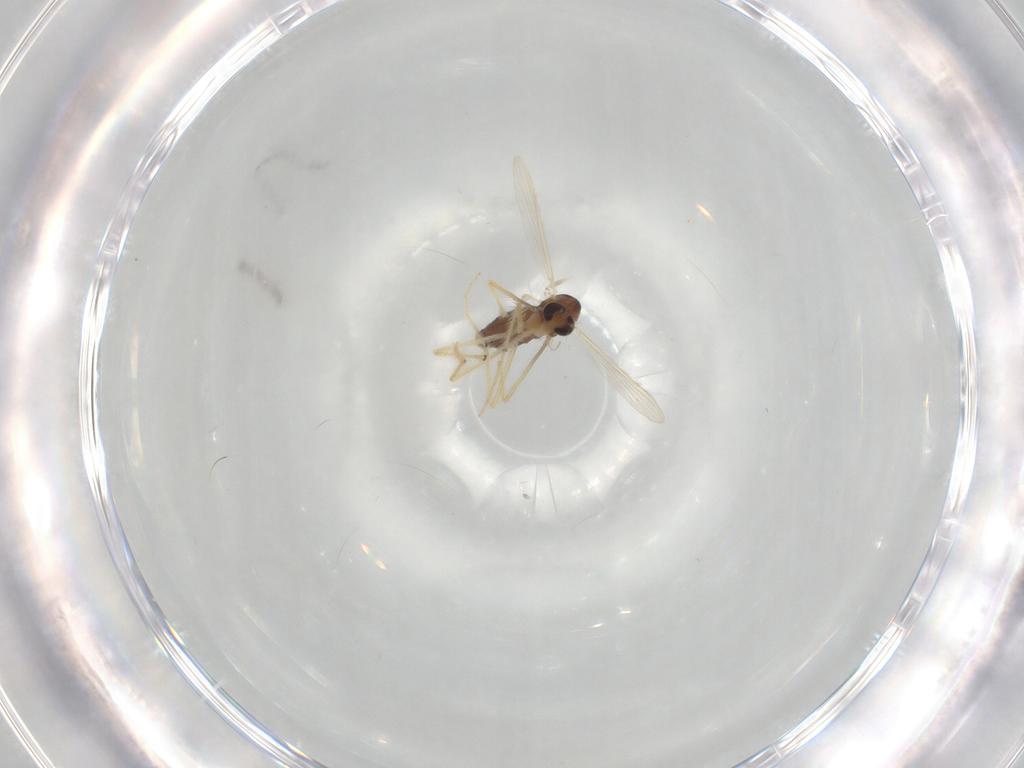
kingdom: Animalia
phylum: Arthropoda
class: Insecta
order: Diptera
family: Chironomidae
